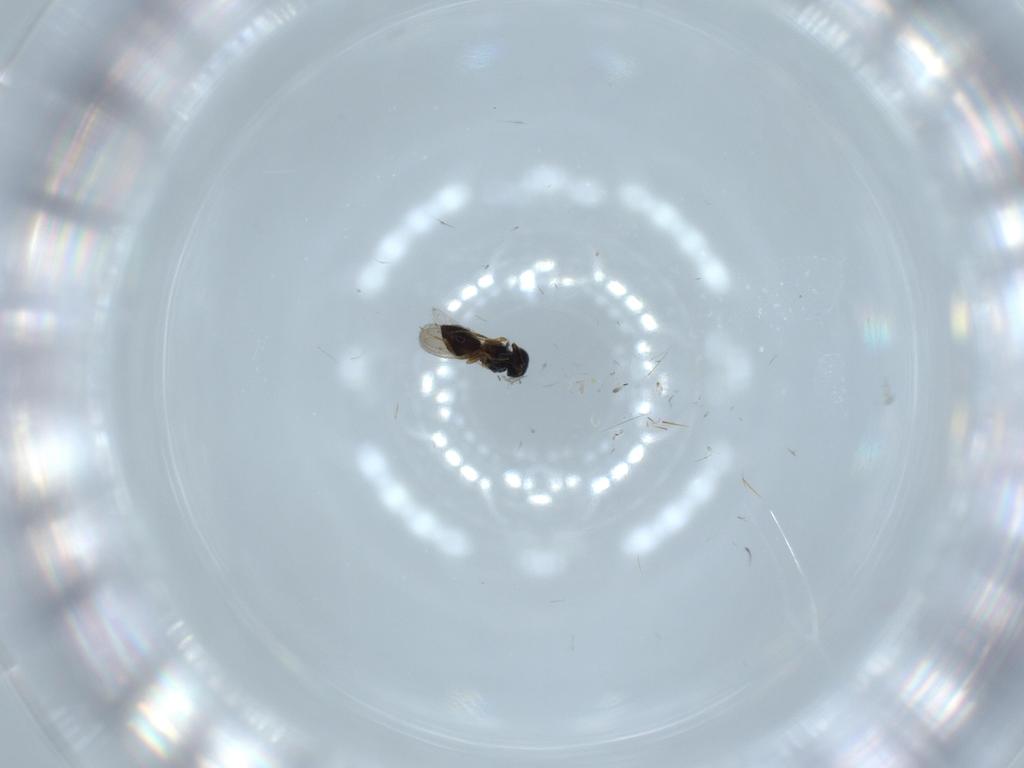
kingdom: Animalia
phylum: Arthropoda
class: Insecta
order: Hymenoptera
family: Scelionidae
